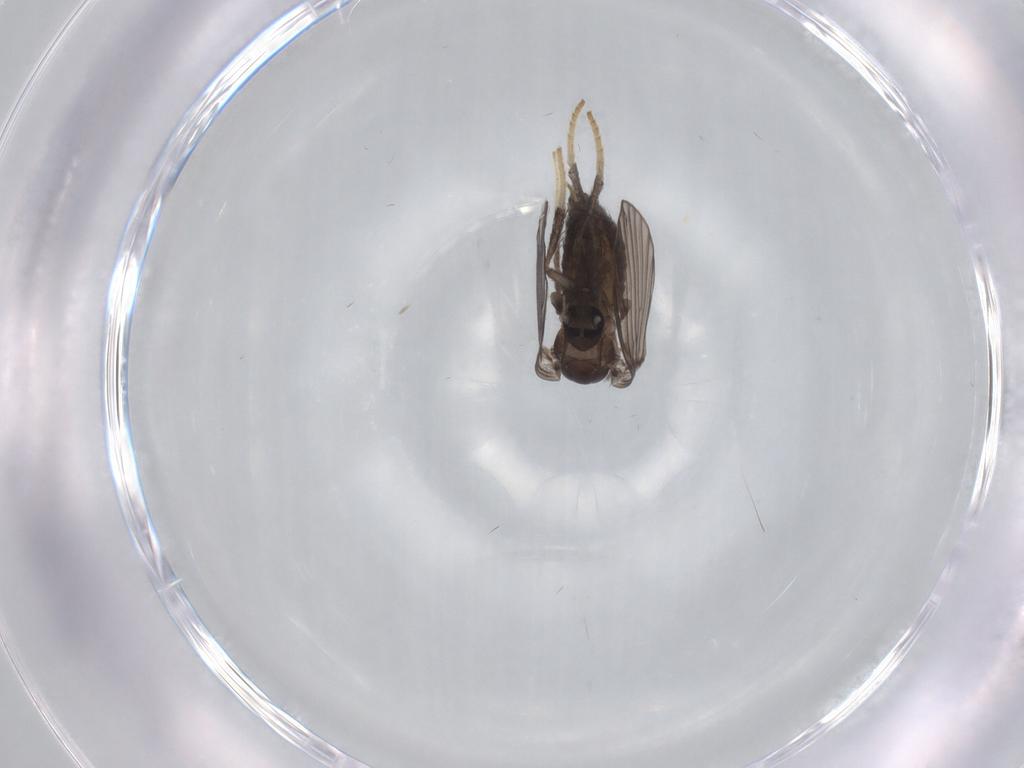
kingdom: Animalia
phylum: Arthropoda
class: Insecta
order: Diptera
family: Psychodidae
